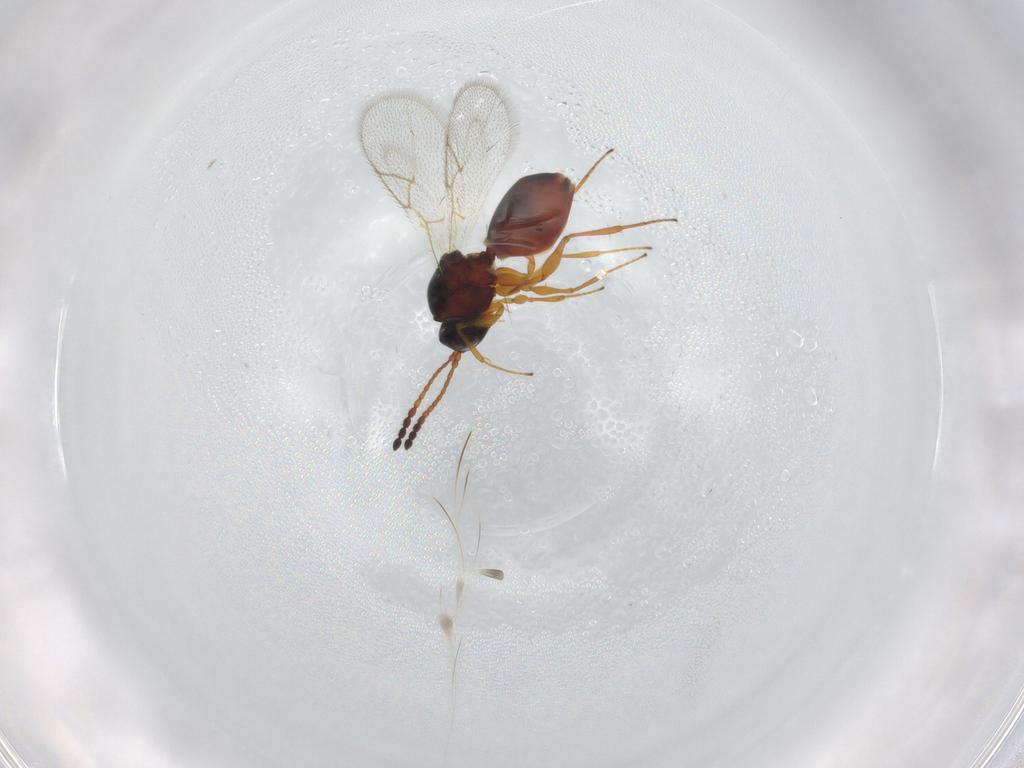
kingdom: Animalia
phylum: Arthropoda
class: Insecta
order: Hymenoptera
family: Figitidae
